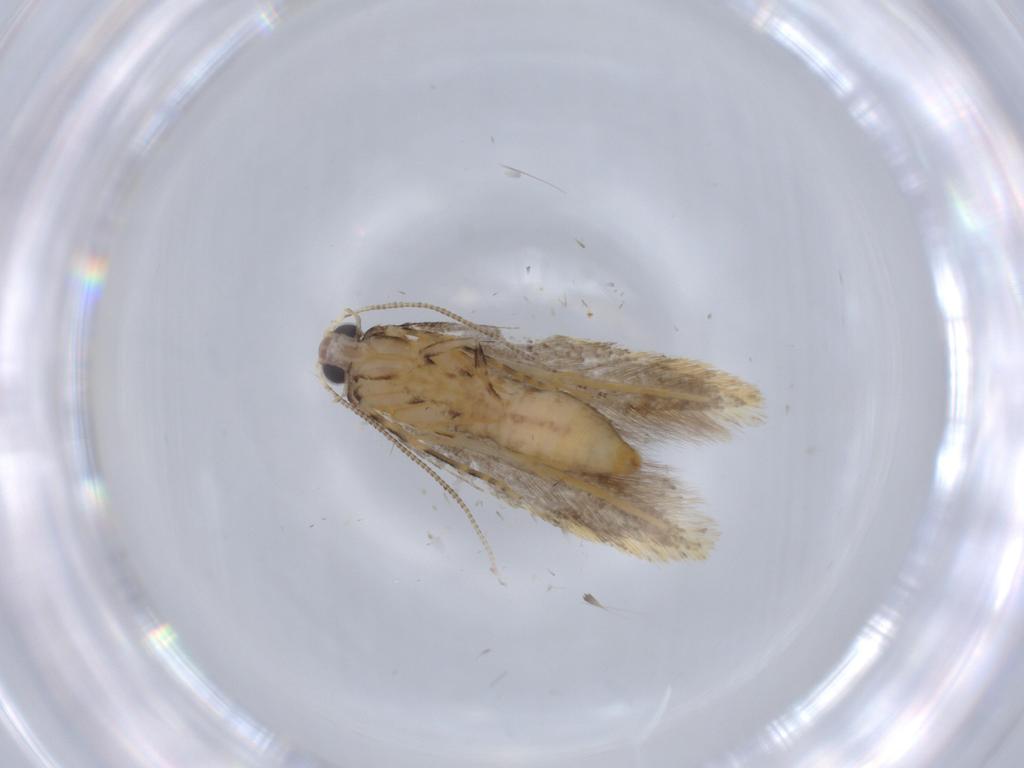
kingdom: Animalia
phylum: Arthropoda
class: Insecta
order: Lepidoptera
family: Tineidae
